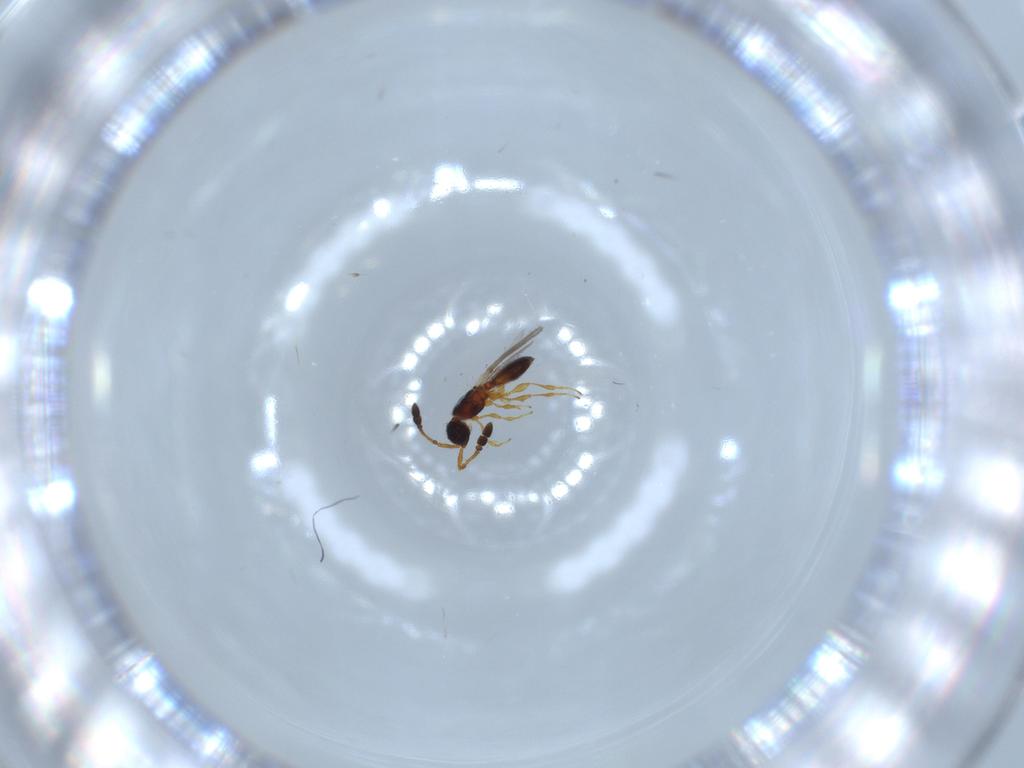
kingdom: Animalia
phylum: Arthropoda
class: Insecta
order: Hymenoptera
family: Diapriidae
